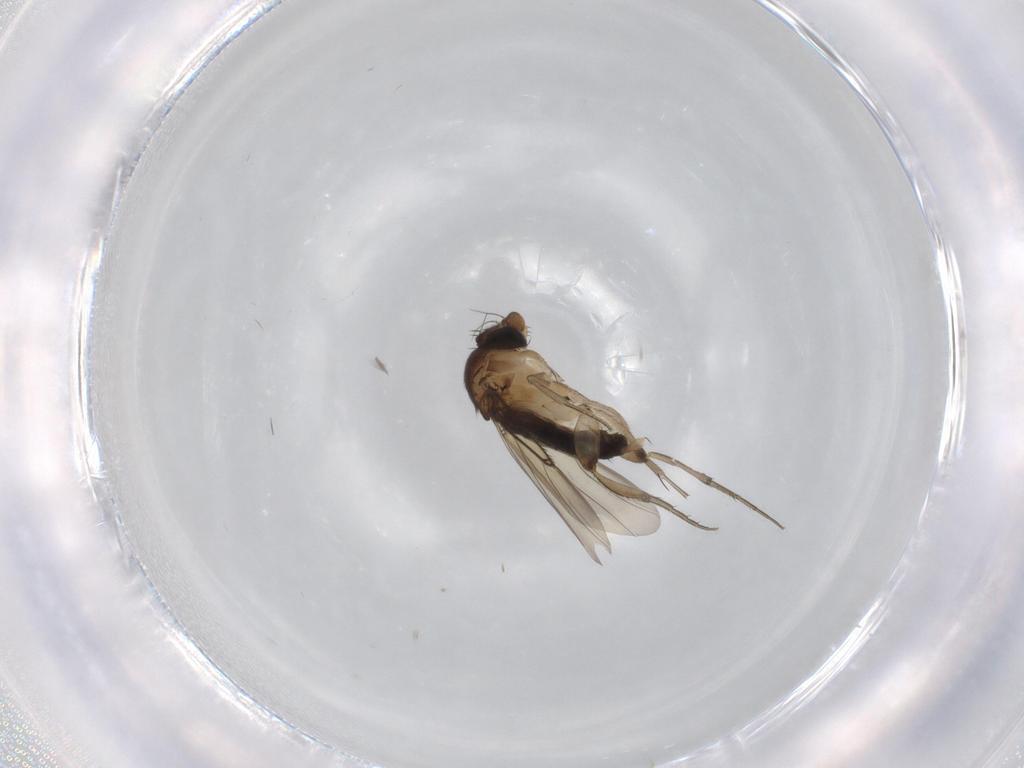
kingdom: Animalia
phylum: Arthropoda
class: Insecta
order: Diptera
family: Phoridae
